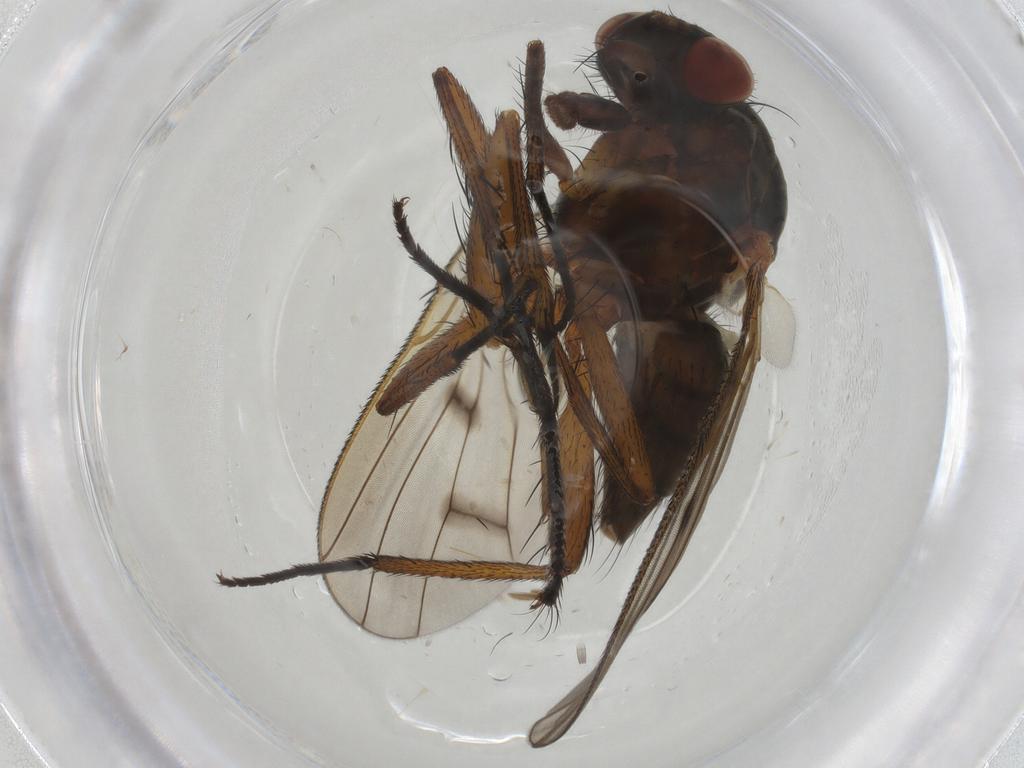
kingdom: Animalia
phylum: Arthropoda
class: Insecta
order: Diptera
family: Anthomyiidae
